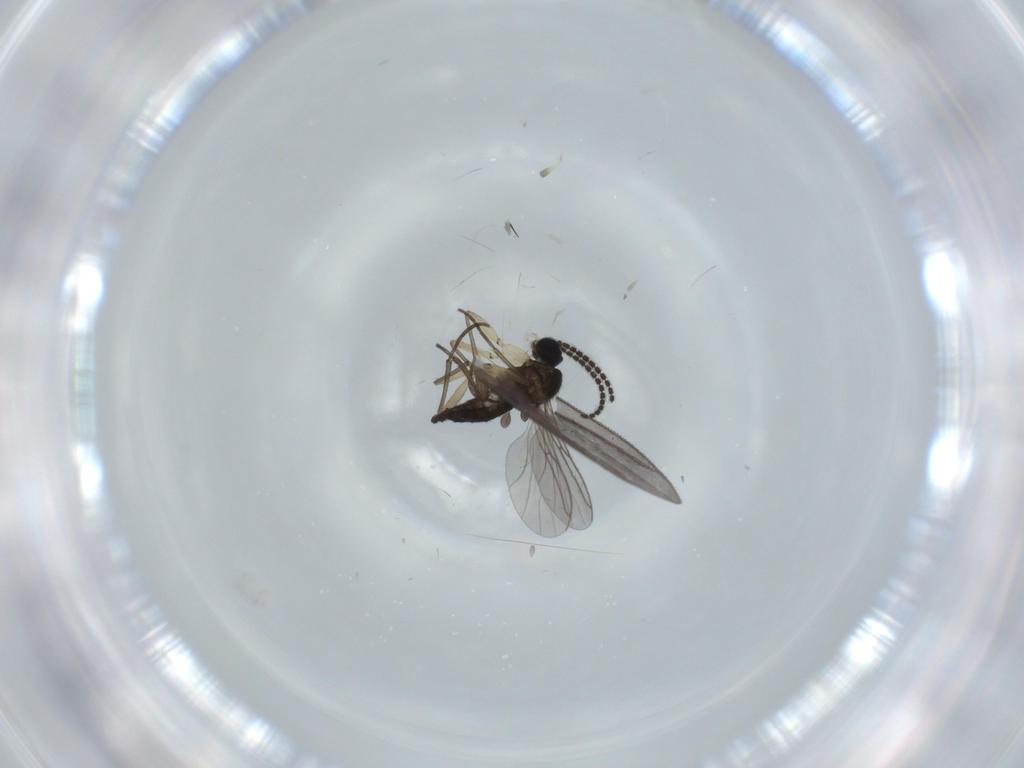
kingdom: Animalia
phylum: Arthropoda
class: Insecta
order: Diptera
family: Sciaridae
